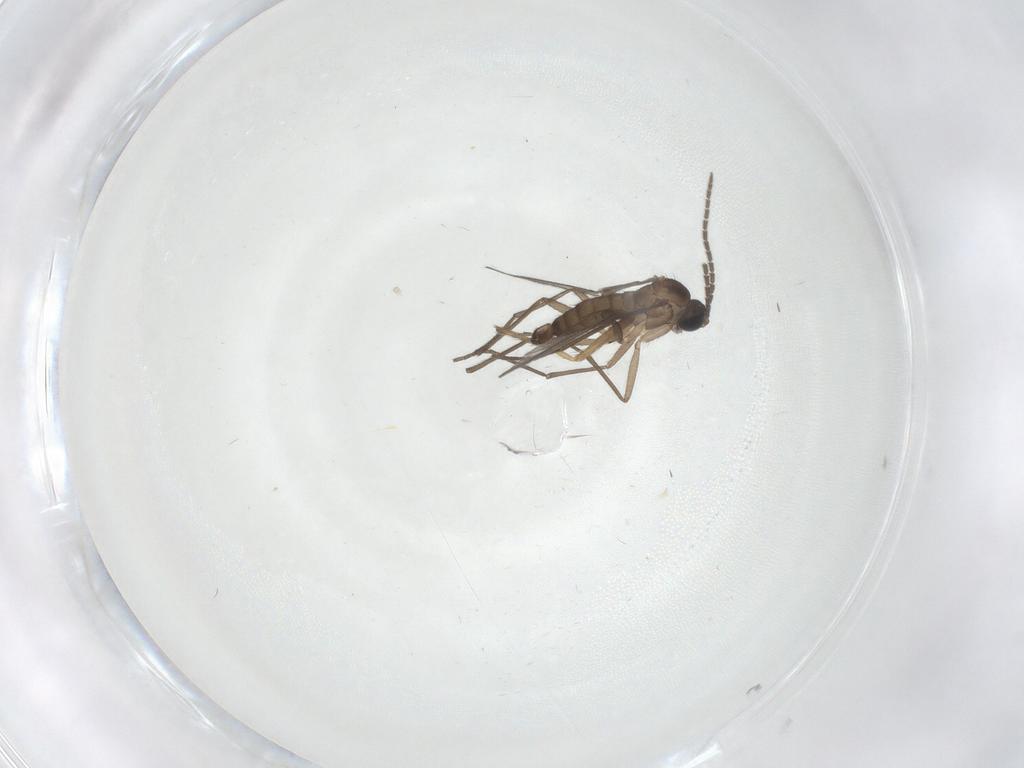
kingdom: Animalia
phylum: Arthropoda
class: Insecta
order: Diptera
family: Sciaridae
